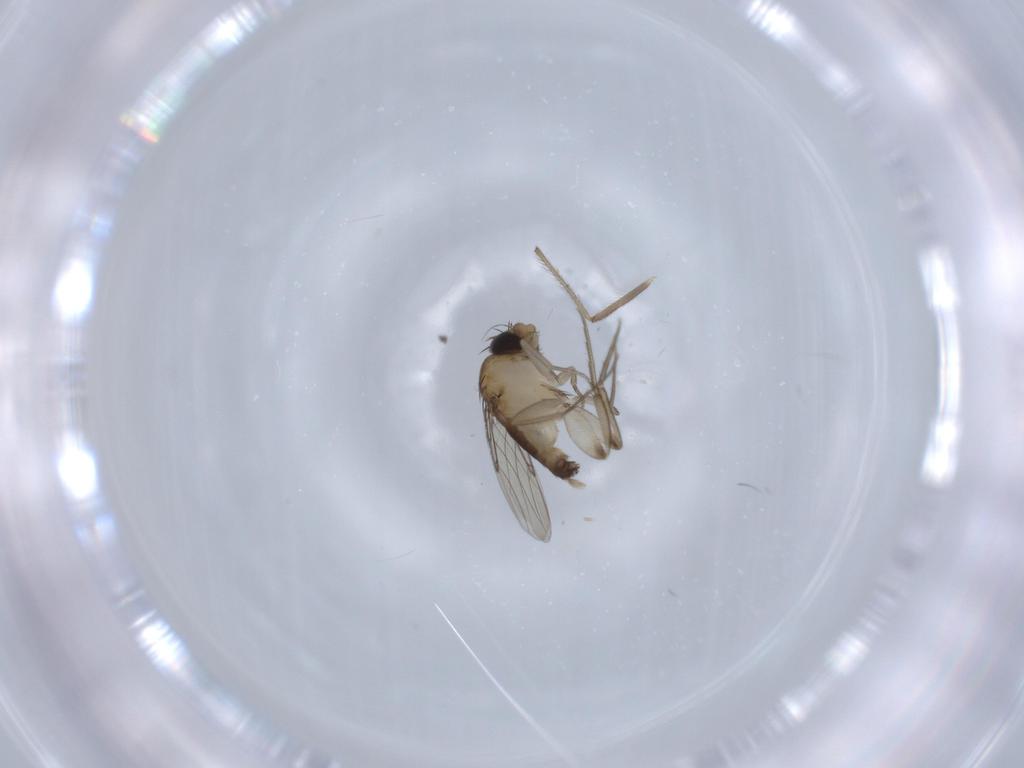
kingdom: Animalia
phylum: Arthropoda
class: Insecta
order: Diptera
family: Phoridae
